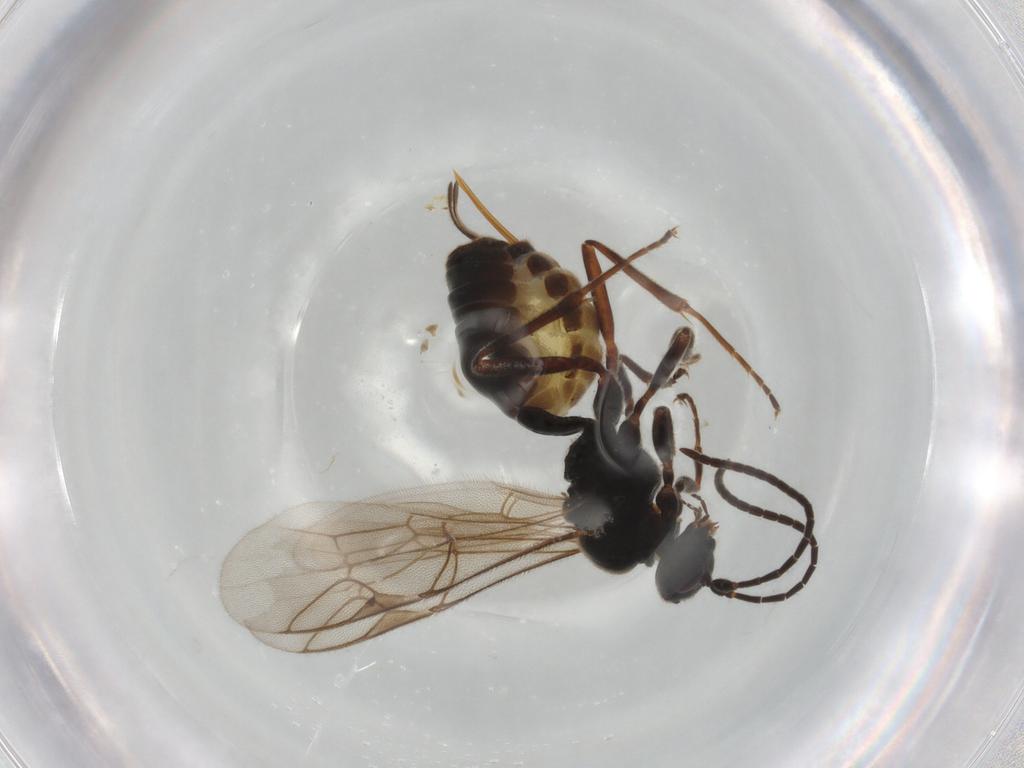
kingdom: Animalia
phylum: Arthropoda
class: Insecta
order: Hymenoptera
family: Ichneumonidae
